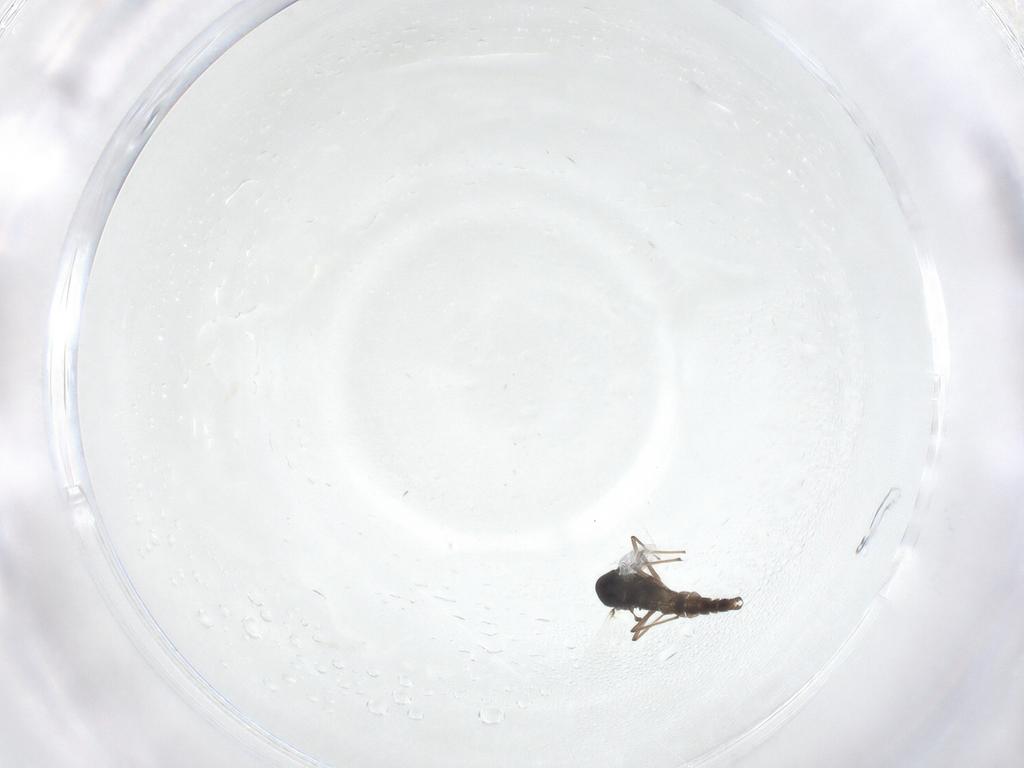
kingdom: Animalia
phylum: Arthropoda
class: Insecta
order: Diptera
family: Chironomidae
